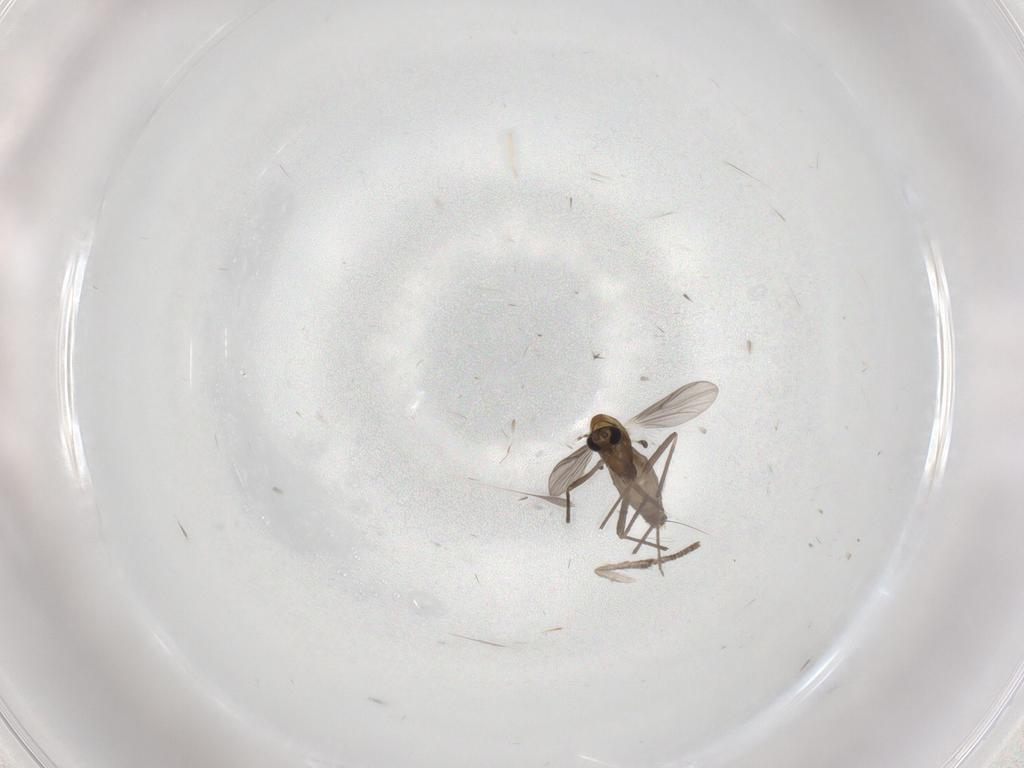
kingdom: Animalia
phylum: Arthropoda
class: Insecta
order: Diptera
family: Chironomidae
